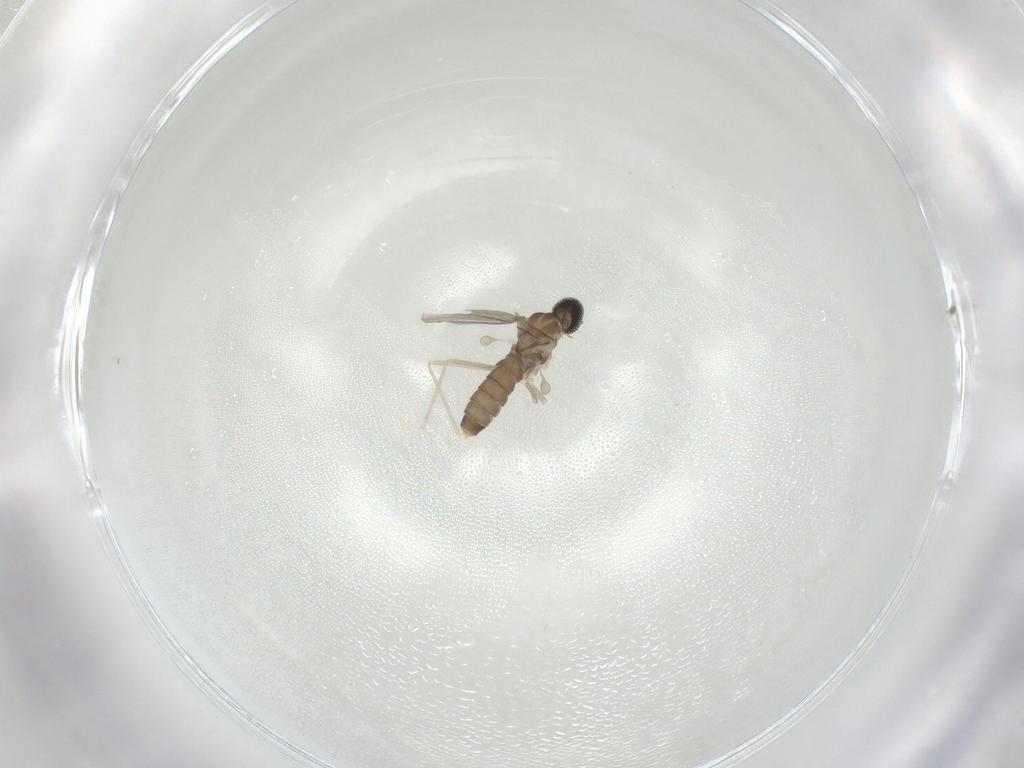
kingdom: Animalia
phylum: Arthropoda
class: Insecta
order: Diptera
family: Cecidomyiidae
